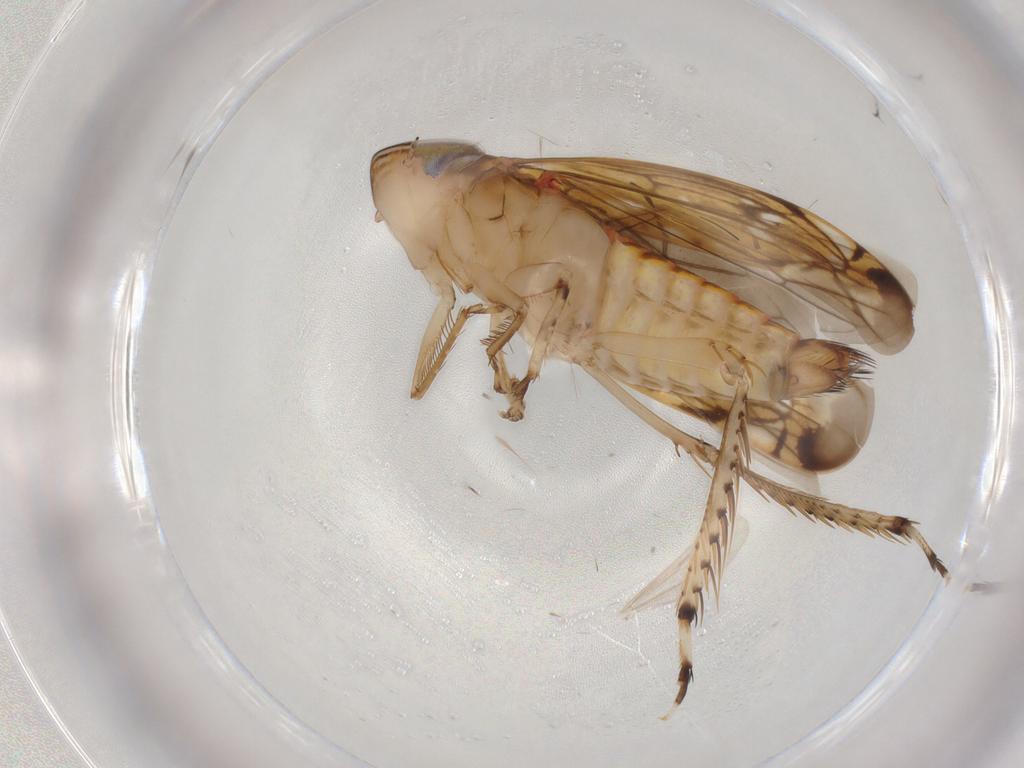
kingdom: Animalia
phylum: Arthropoda
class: Insecta
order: Hemiptera
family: Cicadellidae
